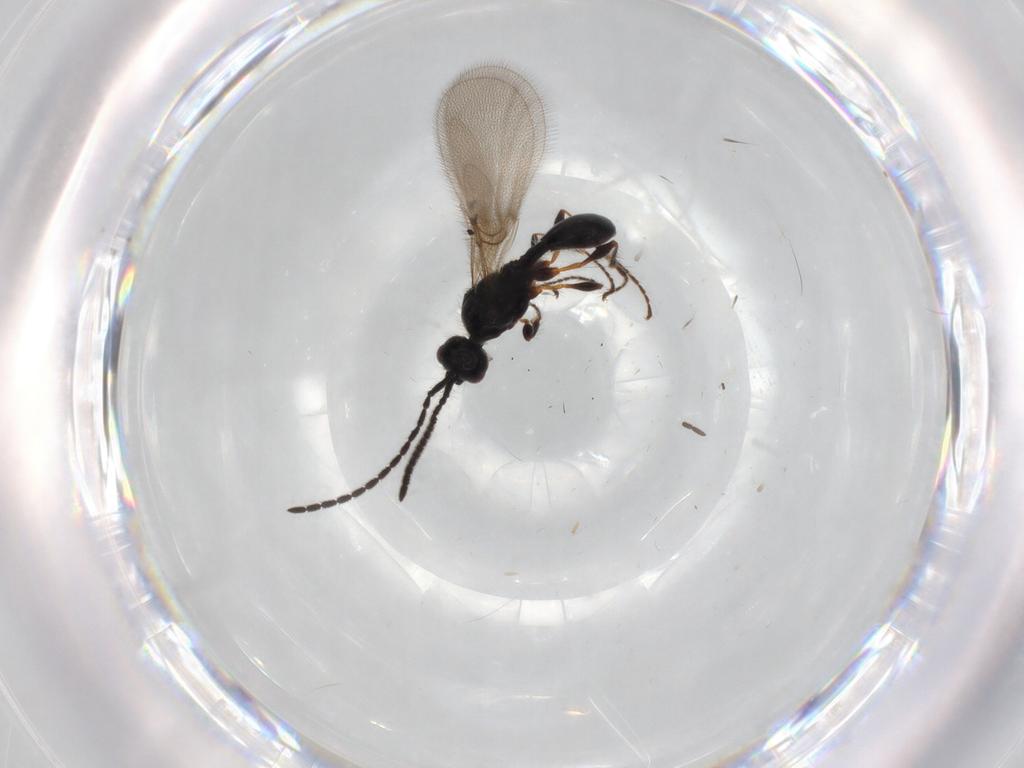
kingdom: Animalia
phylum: Arthropoda
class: Insecta
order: Hymenoptera
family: Diapriidae
